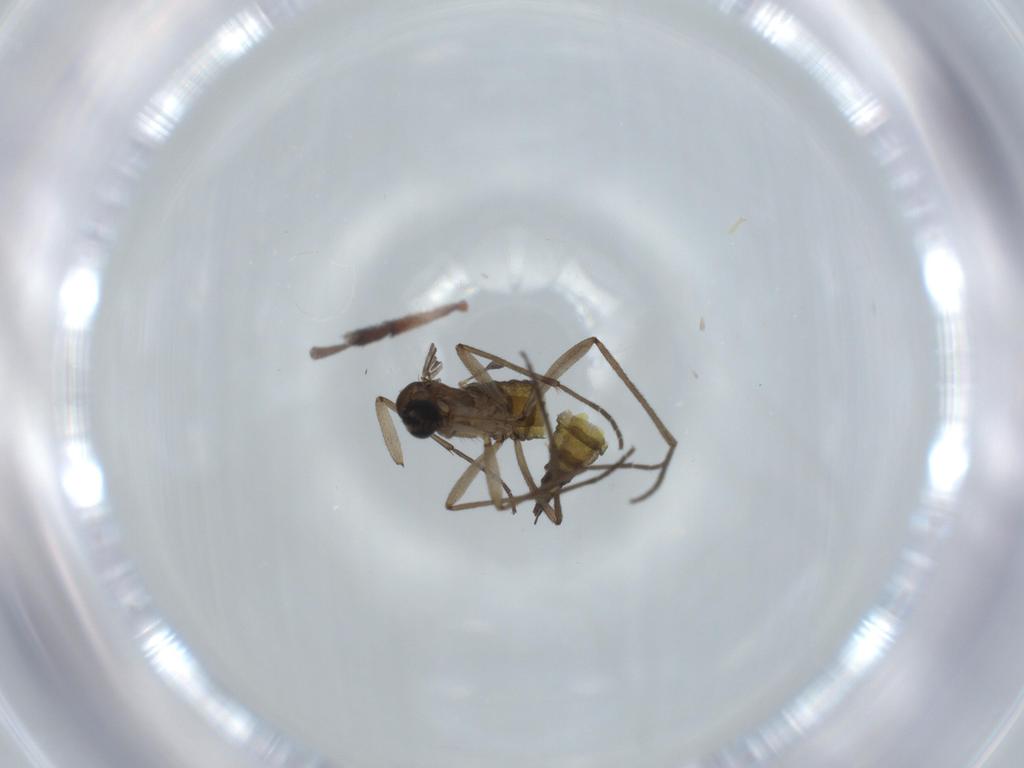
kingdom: Animalia
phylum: Arthropoda
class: Insecta
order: Diptera
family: Sciaridae
